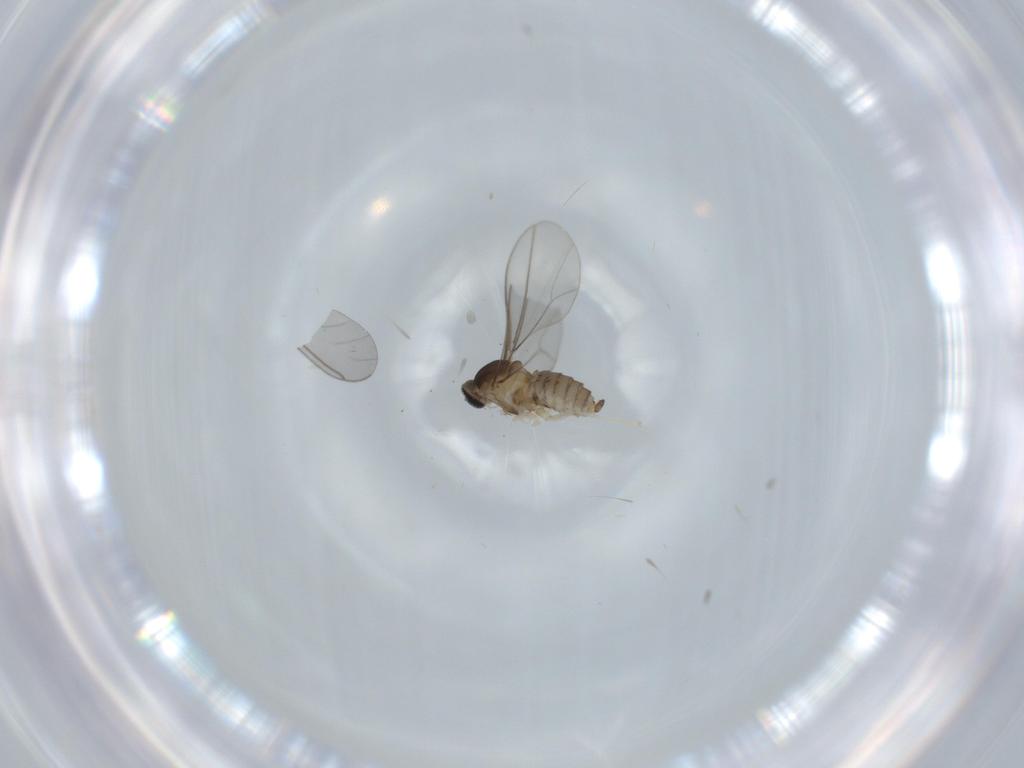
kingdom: Animalia
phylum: Arthropoda
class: Insecta
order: Diptera
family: Cecidomyiidae
